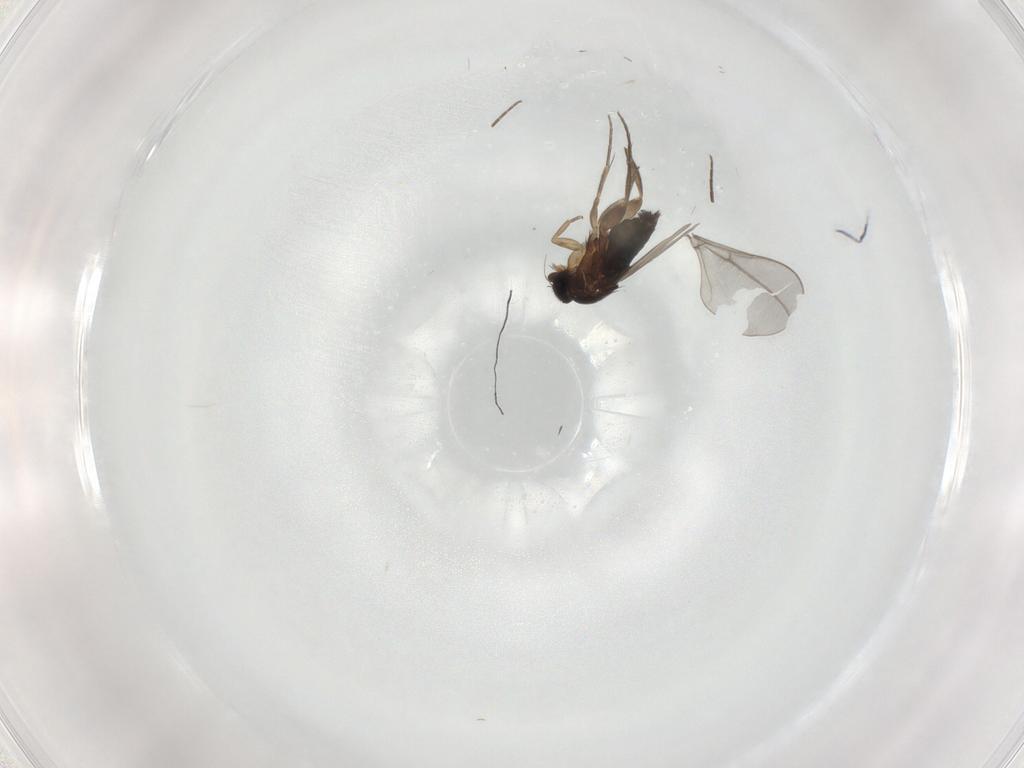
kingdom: Animalia
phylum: Arthropoda
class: Insecta
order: Diptera
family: Phoridae
